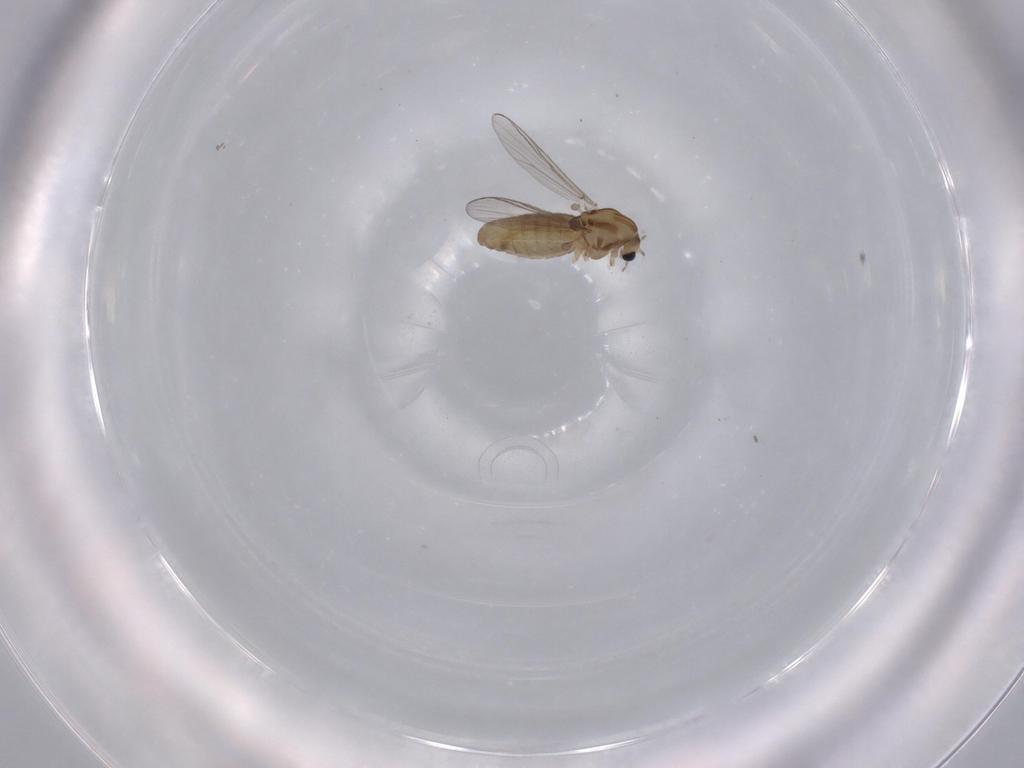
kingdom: Animalia
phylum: Arthropoda
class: Insecta
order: Diptera
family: Chironomidae
